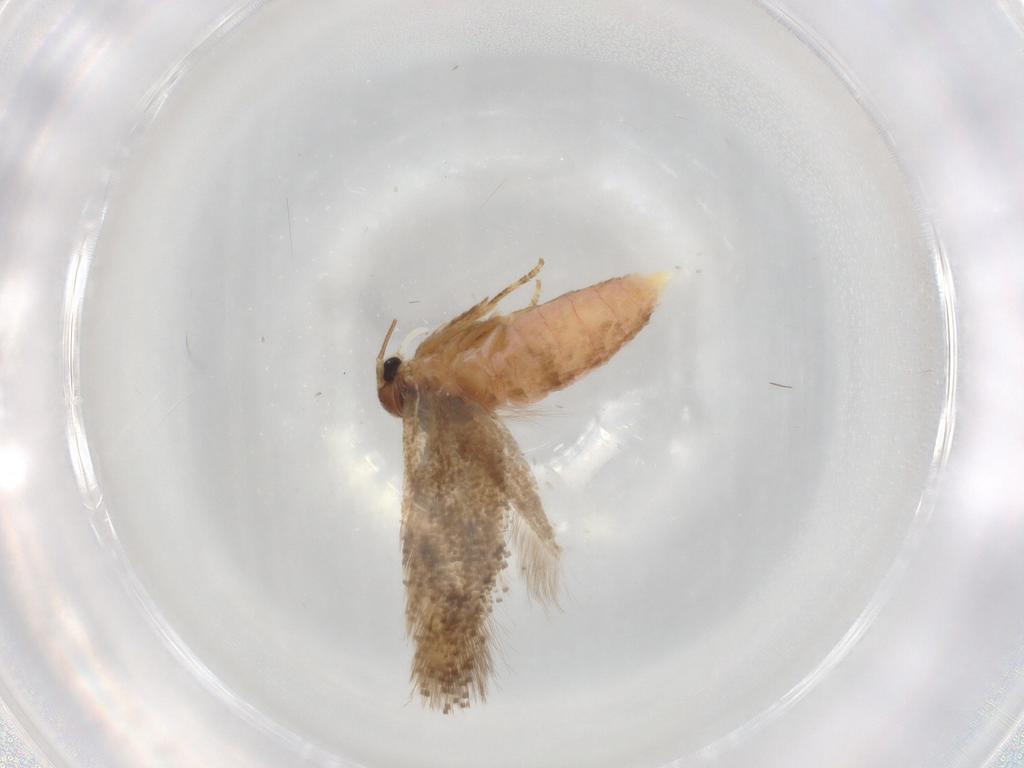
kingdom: Animalia
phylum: Arthropoda
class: Insecta
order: Lepidoptera
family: Elachistidae
